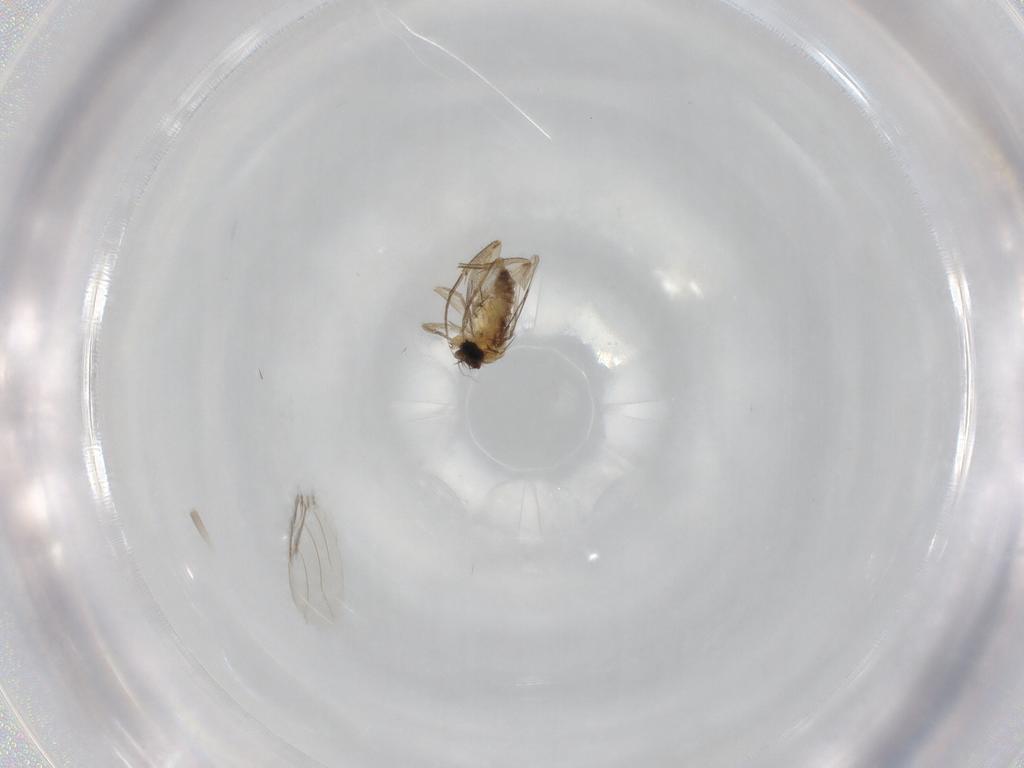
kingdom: Animalia
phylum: Arthropoda
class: Insecta
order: Diptera
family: Phoridae
